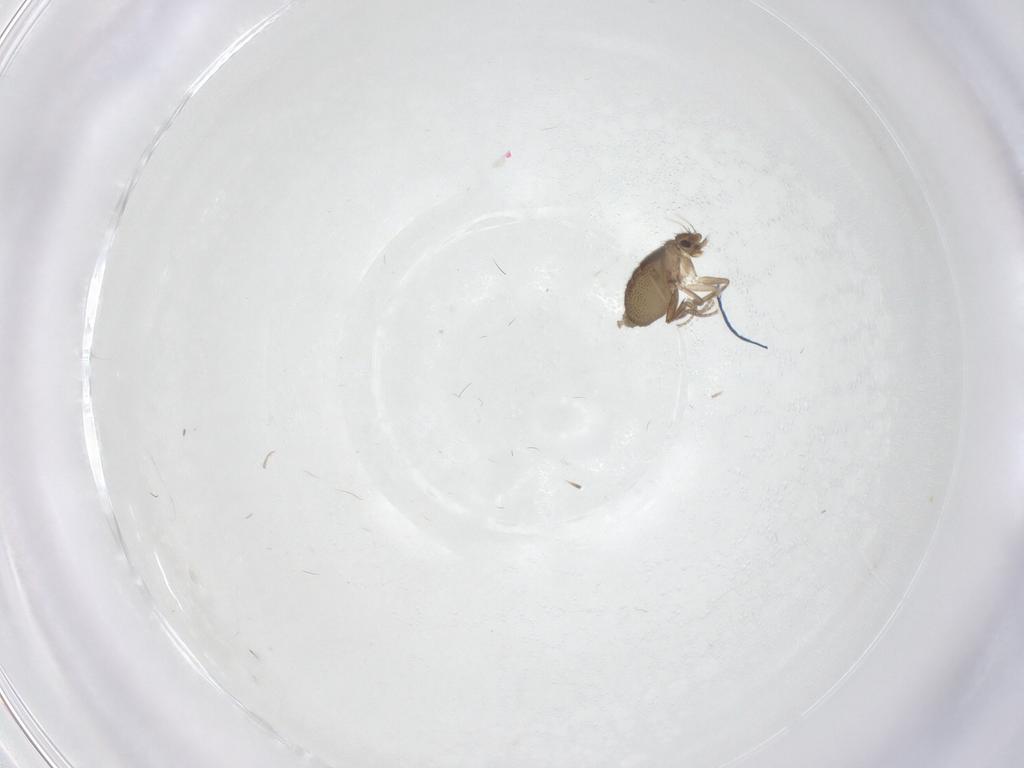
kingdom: Animalia
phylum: Arthropoda
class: Insecta
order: Diptera
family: Phoridae
